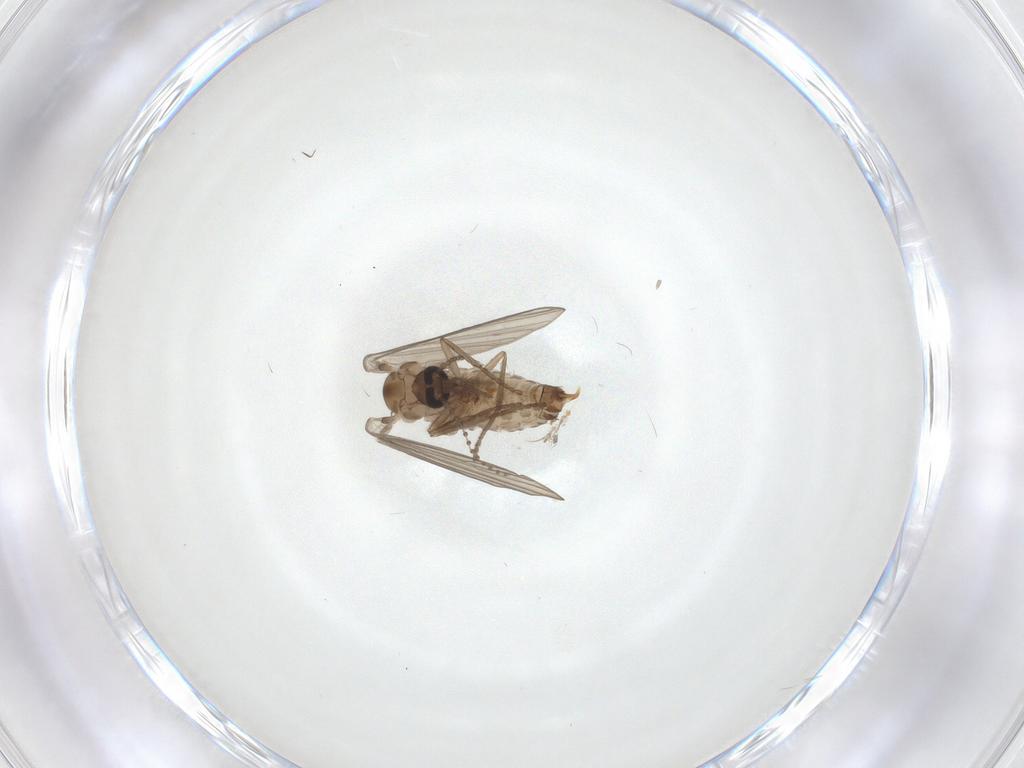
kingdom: Animalia
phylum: Arthropoda
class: Insecta
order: Diptera
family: Psychodidae
